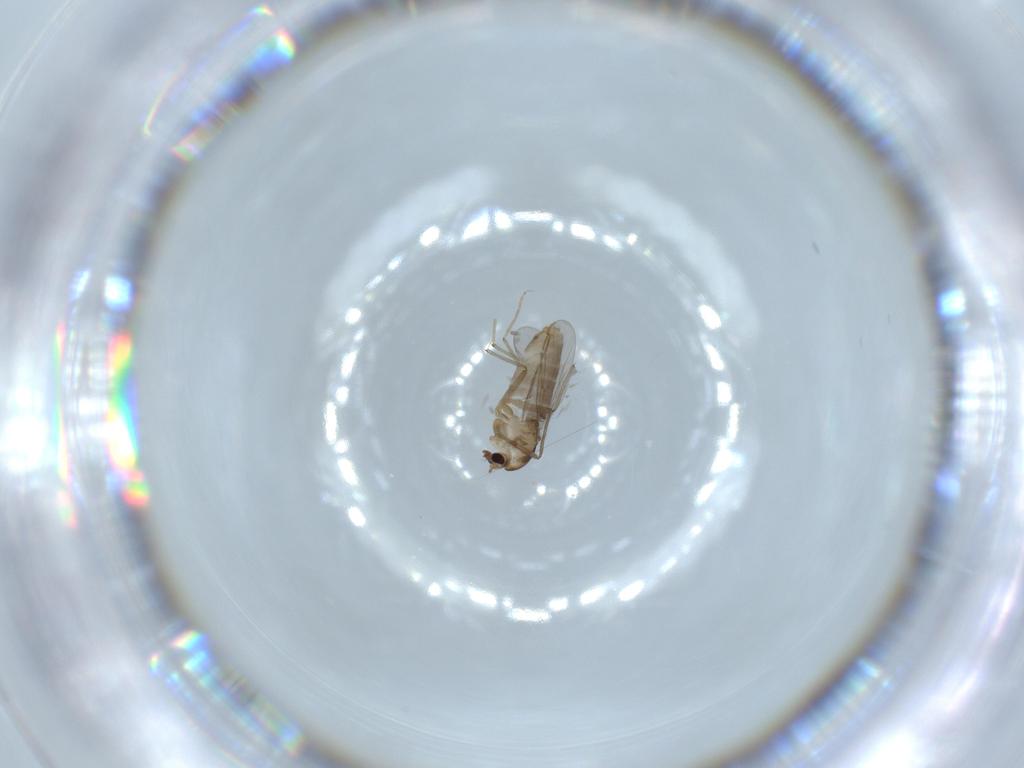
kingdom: Animalia
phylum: Arthropoda
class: Insecta
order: Diptera
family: Chironomidae
